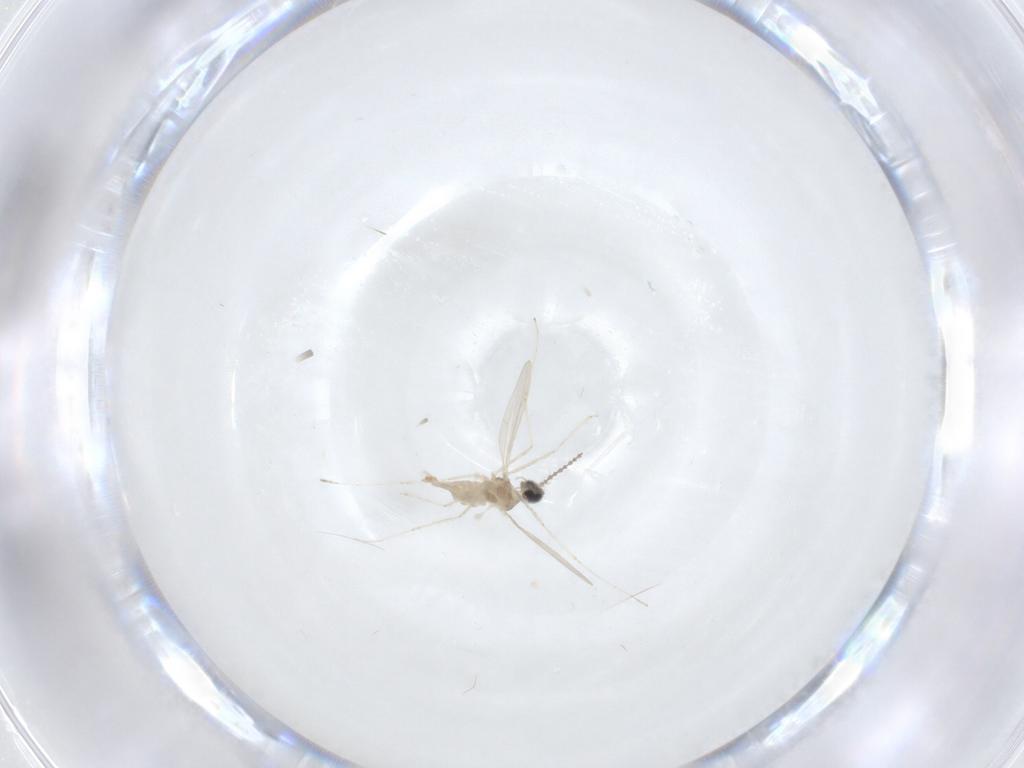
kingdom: Animalia
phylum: Arthropoda
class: Insecta
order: Diptera
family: Cecidomyiidae
